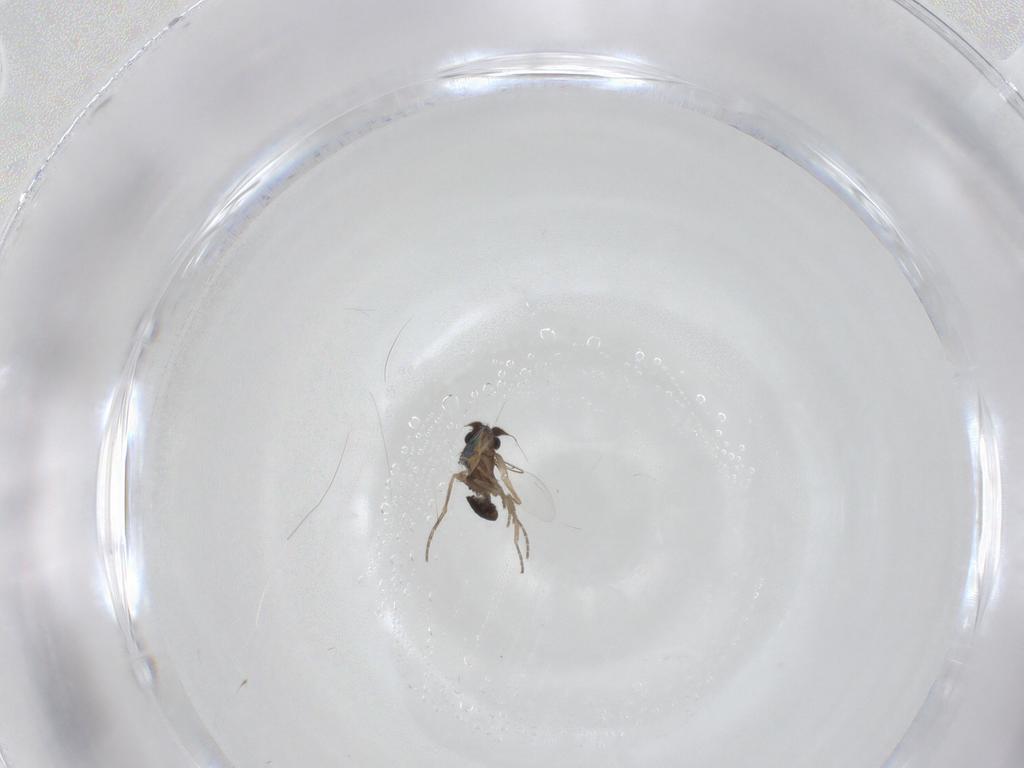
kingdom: Animalia
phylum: Arthropoda
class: Insecta
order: Diptera
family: Phoridae
